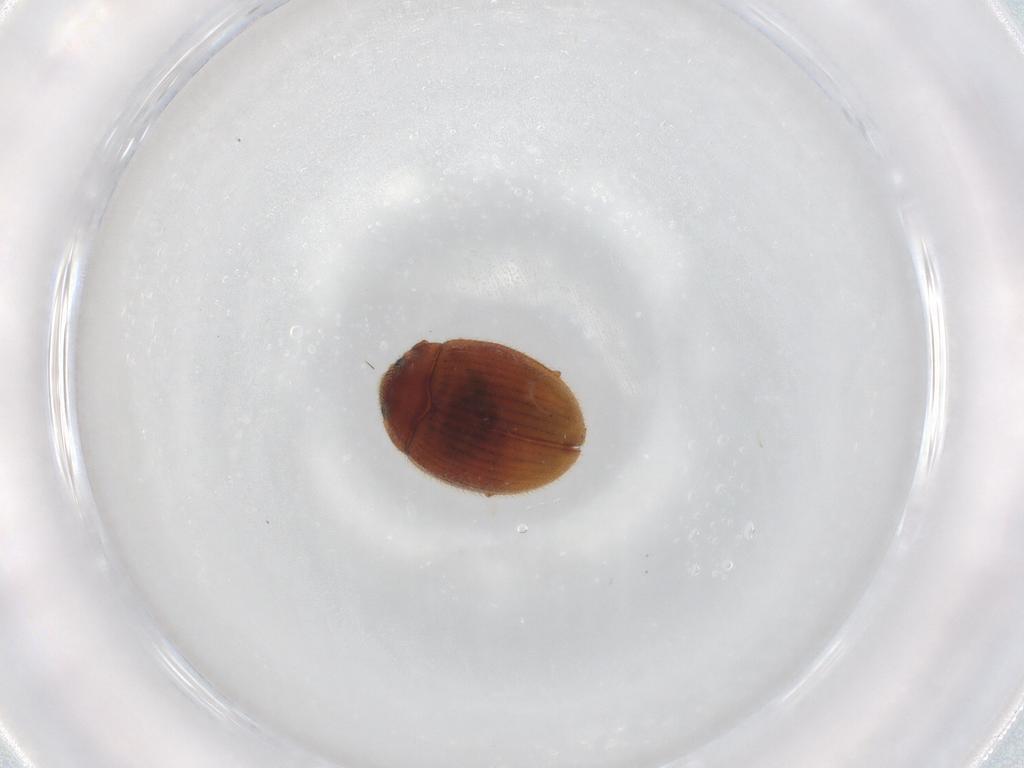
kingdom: Animalia
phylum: Arthropoda
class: Insecta
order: Coleoptera
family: Euxestidae
